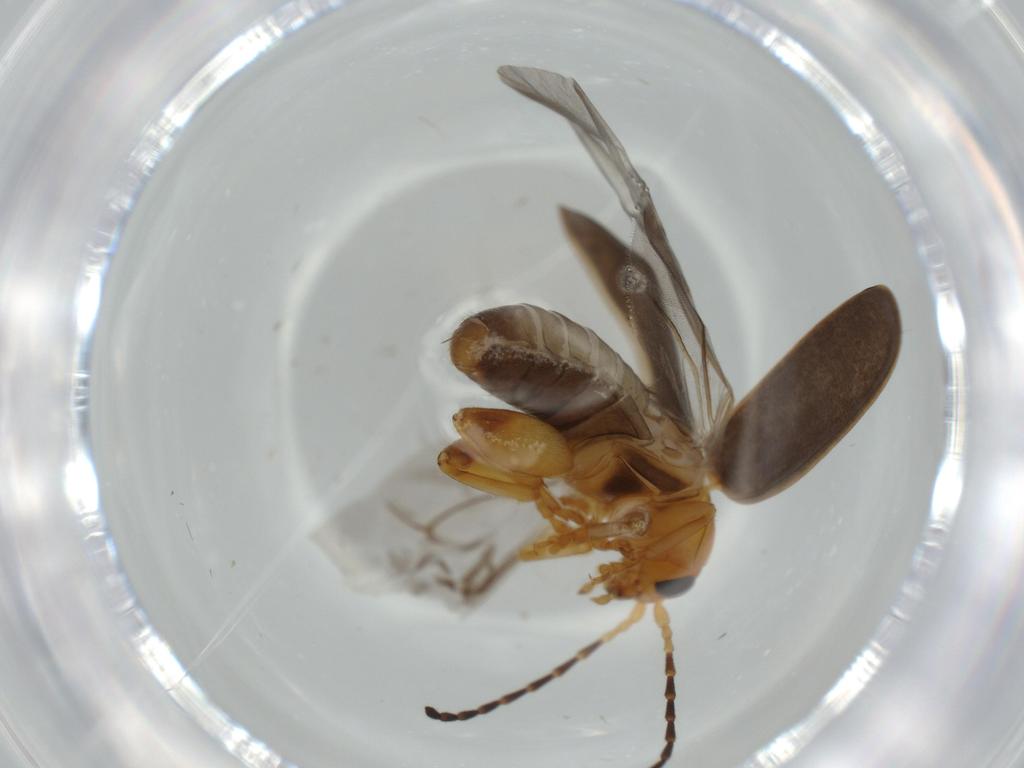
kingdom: Animalia
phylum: Arthropoda
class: Insecta
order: Coleoptera
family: Chrysomelidae
